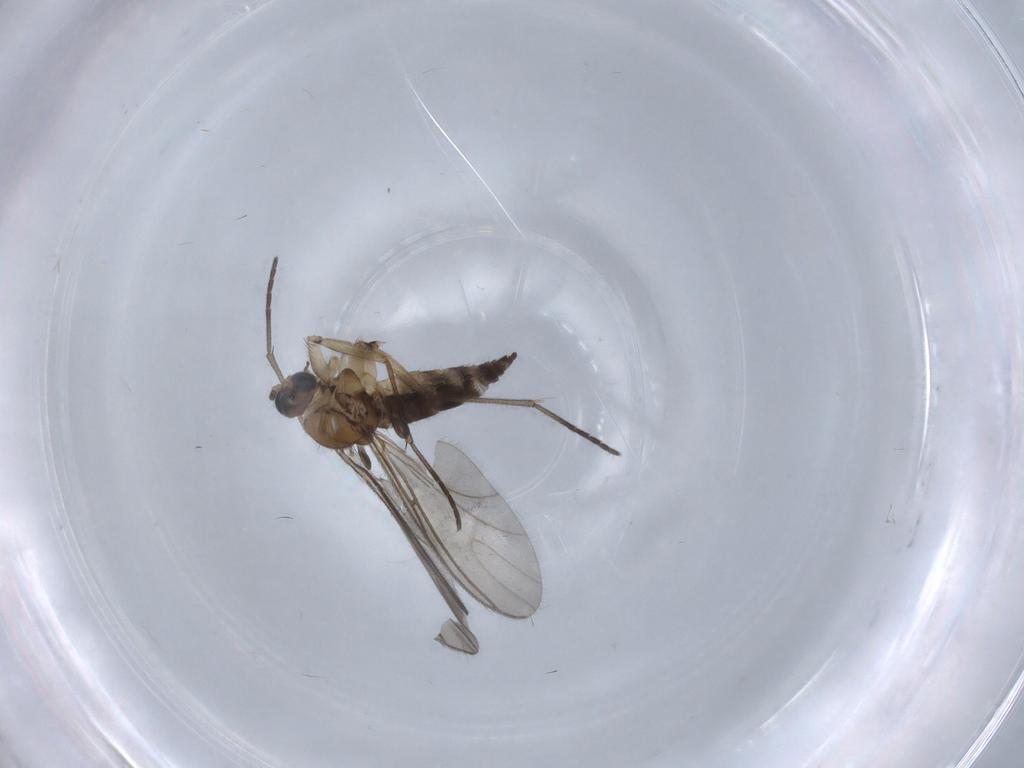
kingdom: Animalia
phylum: Arthropoda
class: Insecta
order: Diptera
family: Sciaridae
